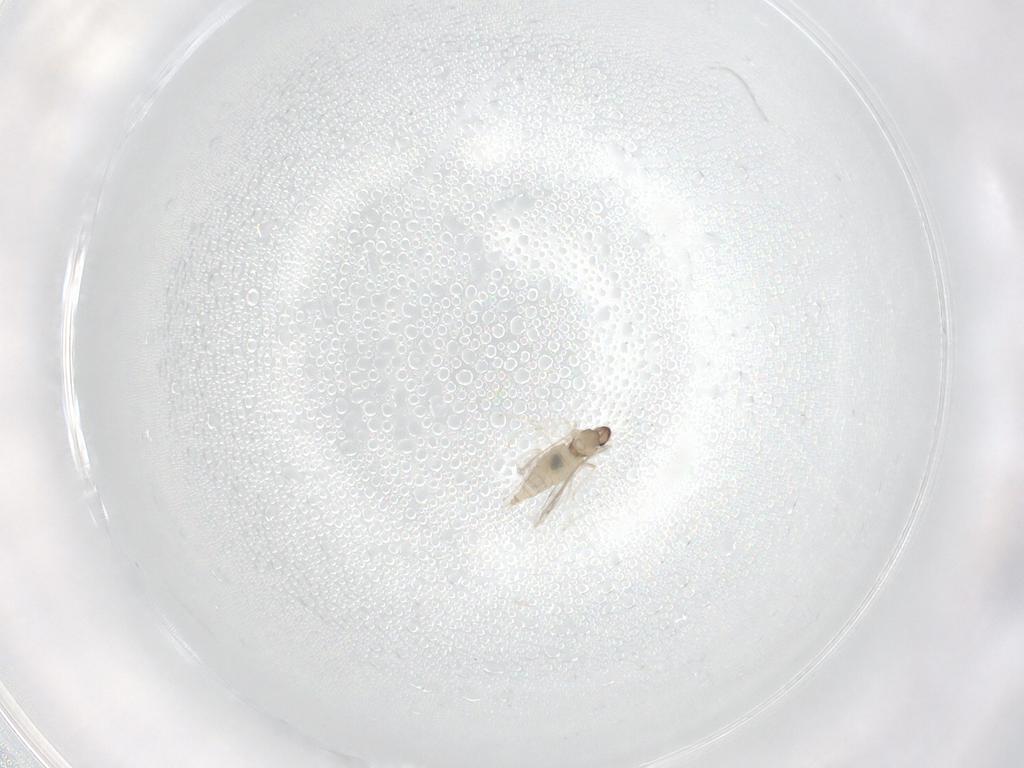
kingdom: Animalia
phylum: Arthropoda
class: Insecta
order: Diptera
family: Cecidomyiidae
